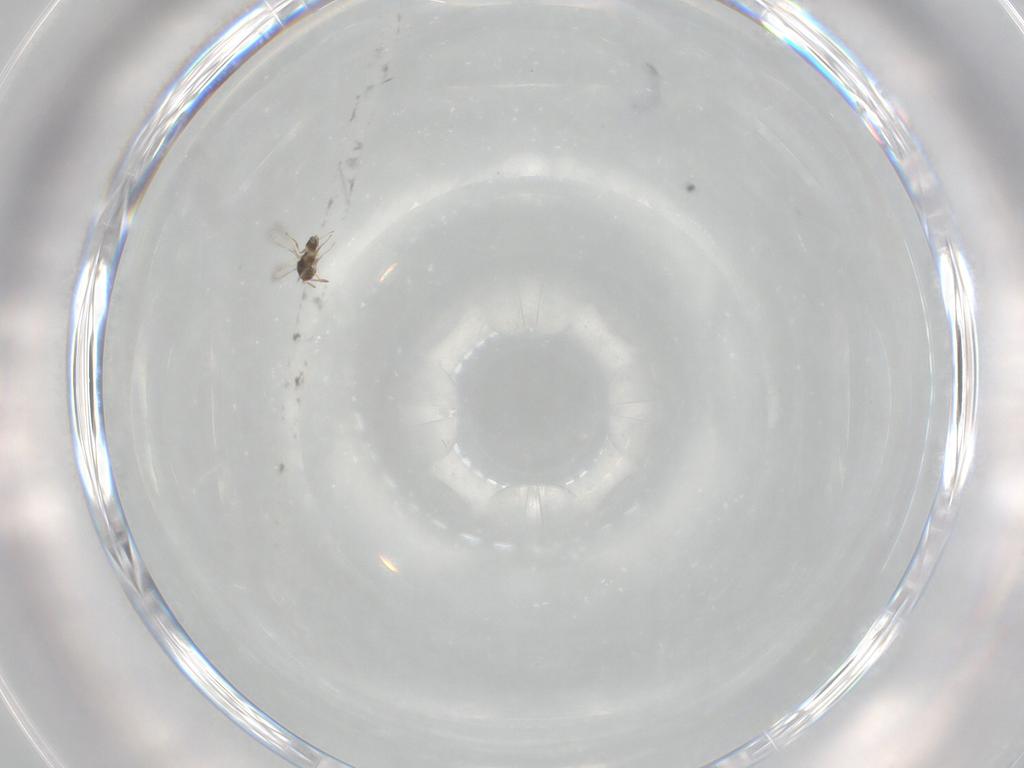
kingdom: Animalia
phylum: Arthropoda
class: Insecta
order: Hymenoptera
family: Mymaridae
